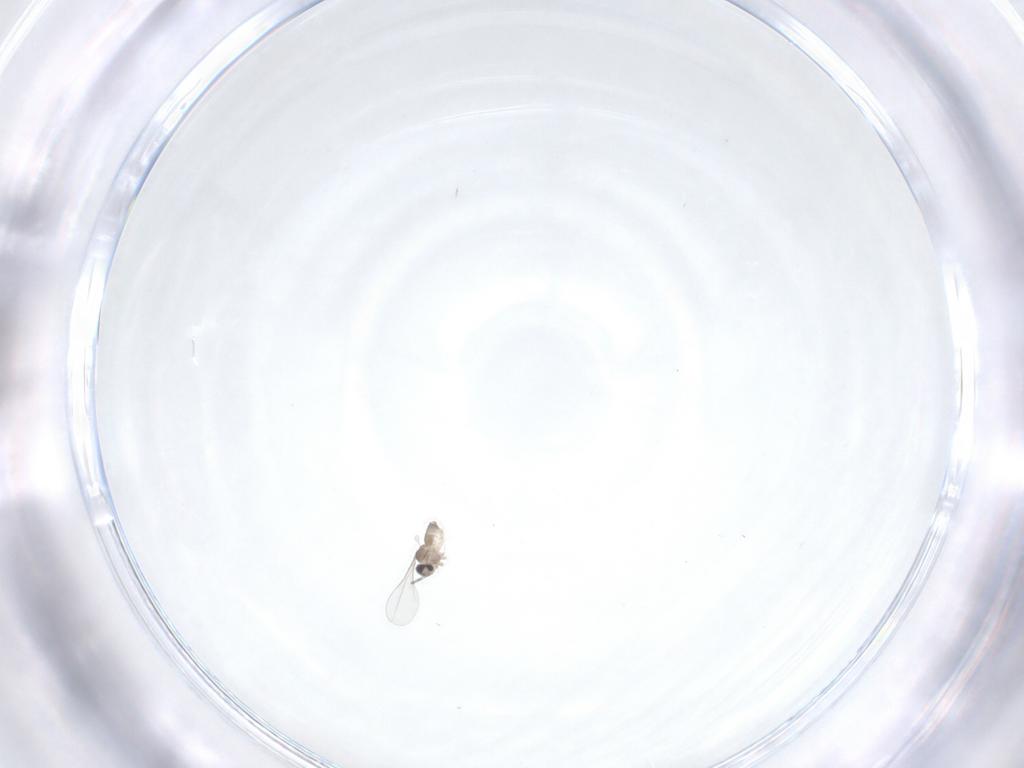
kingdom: Animalia
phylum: Arthropoda
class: Insecta
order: Diptera
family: Cecidomyiidae
